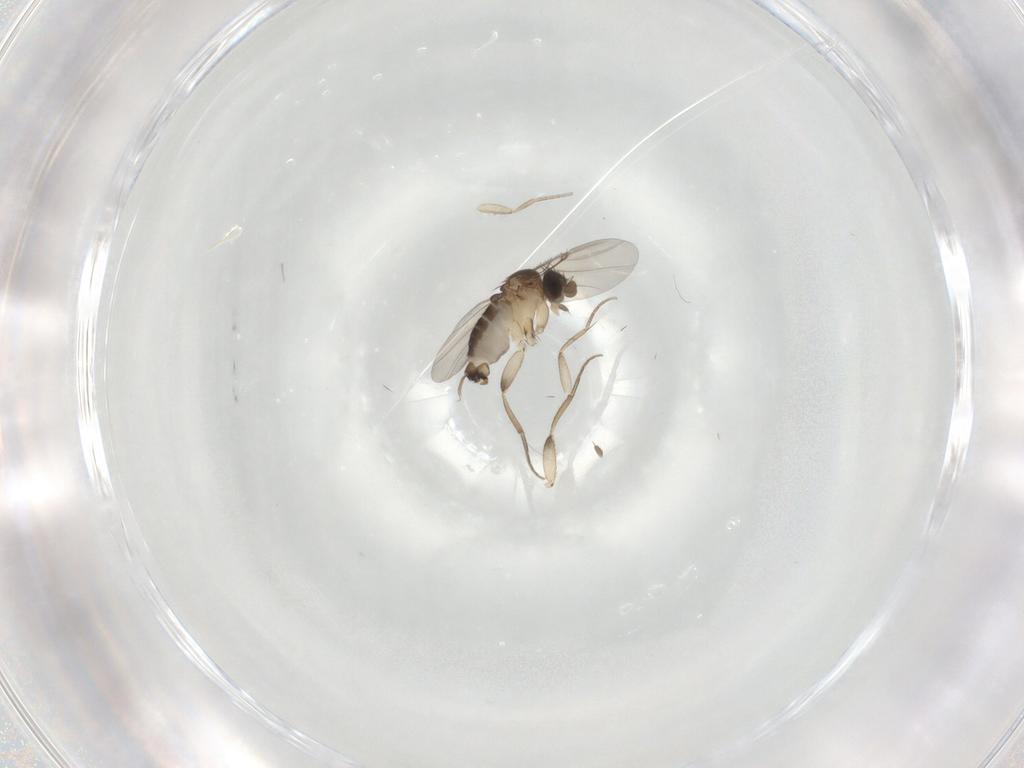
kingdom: Animalia
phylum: Arthropoda
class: Insecta
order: Diptera
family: Phoridae
